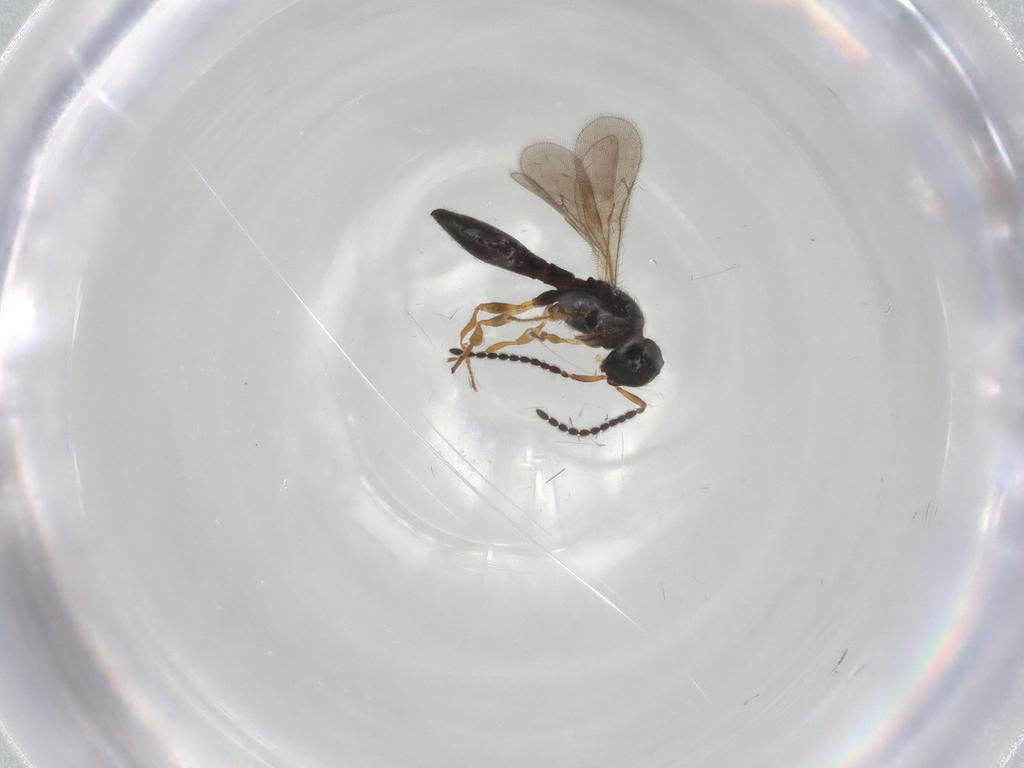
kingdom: Animalia
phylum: Arthropoda
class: Insecta
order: Hymenoptera
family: Scelionidae
